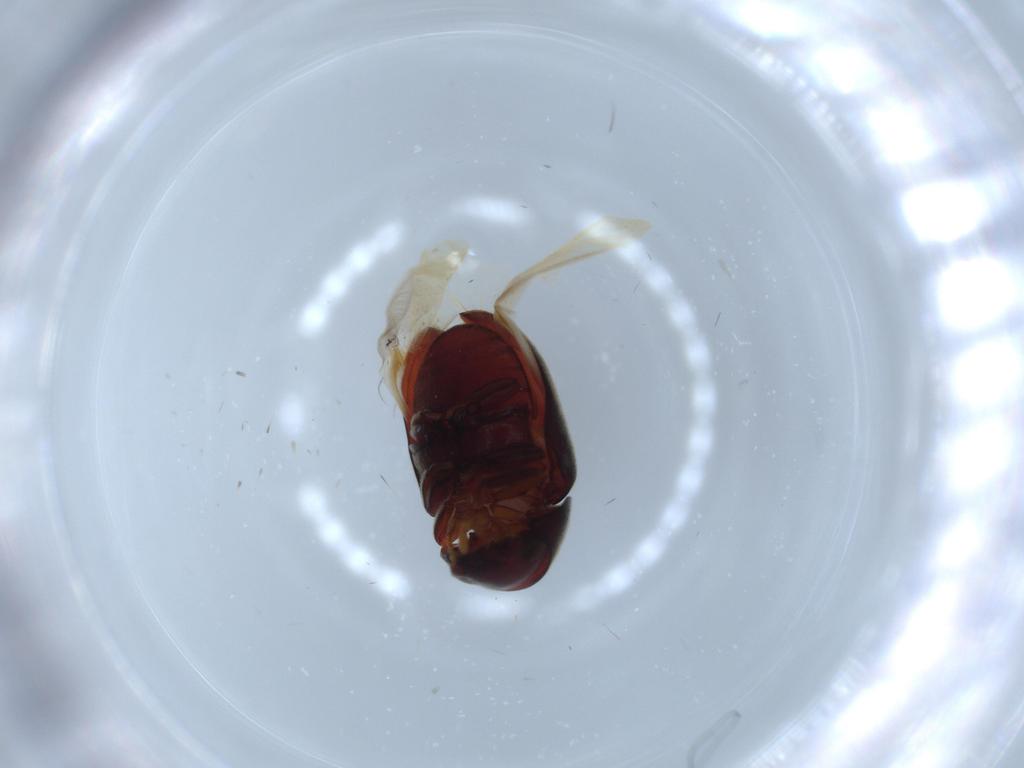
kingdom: Animalia
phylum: Arthropoda
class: Insecta
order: Coleoptera
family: Ptinidae
